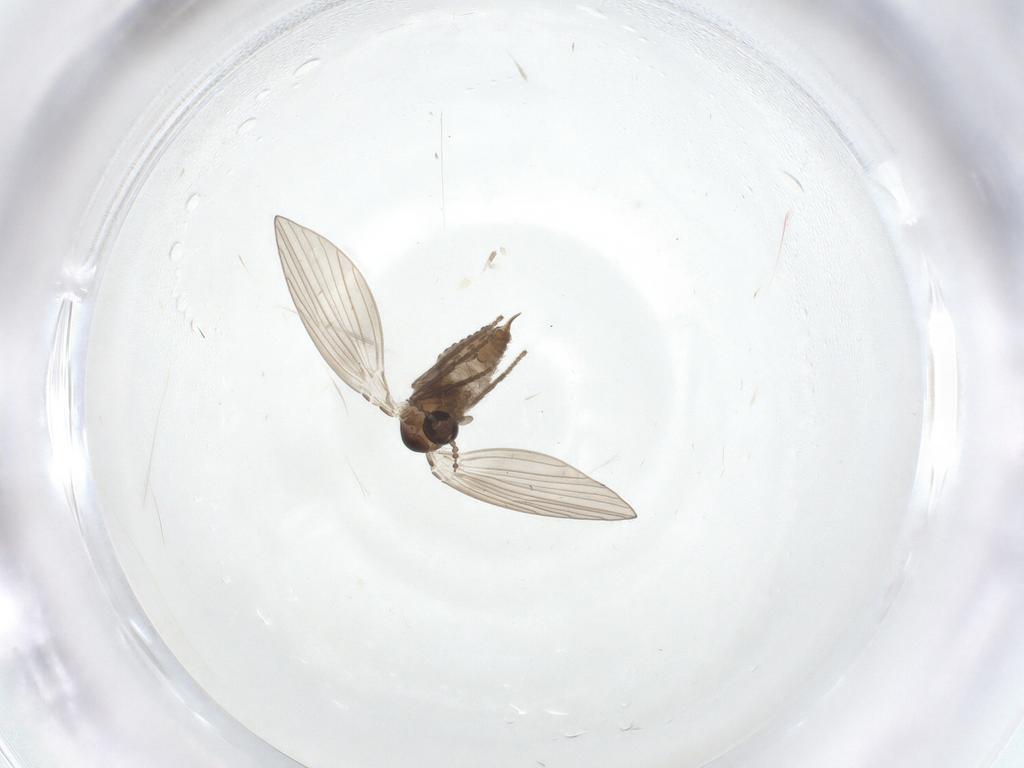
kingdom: Animalia
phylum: Arthropoda
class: Insecta
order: Diptera
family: Psychodidae
